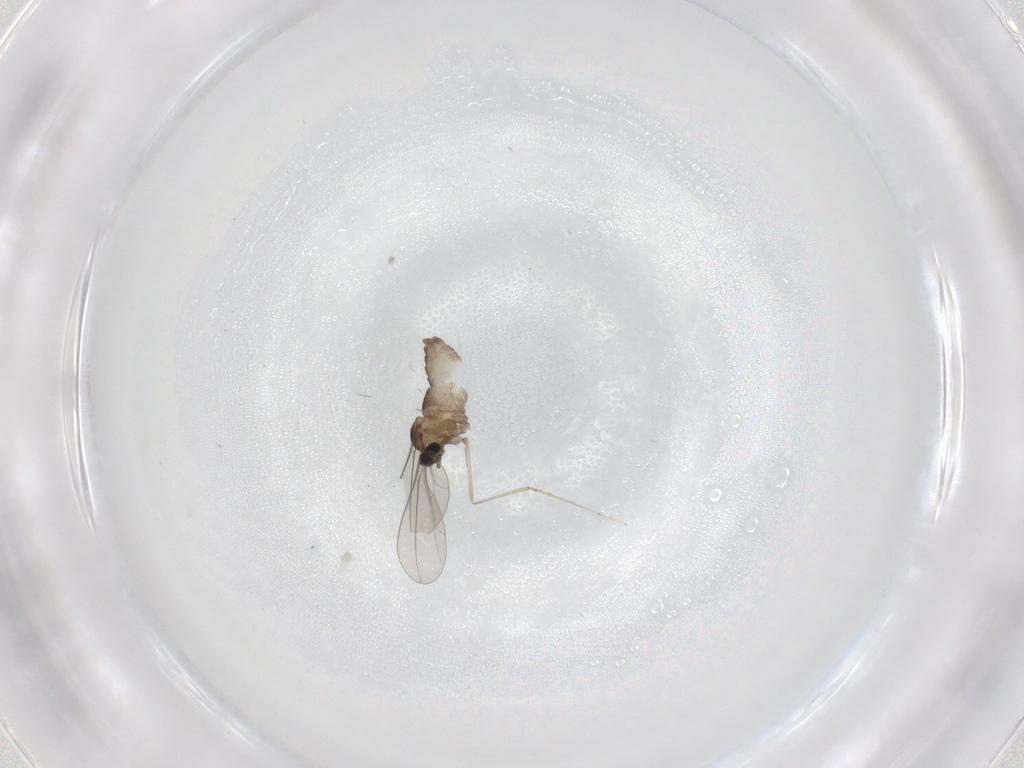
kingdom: Animalia
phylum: Arthropoda
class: Insecta
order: Diptera
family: Cecidomyiidae
